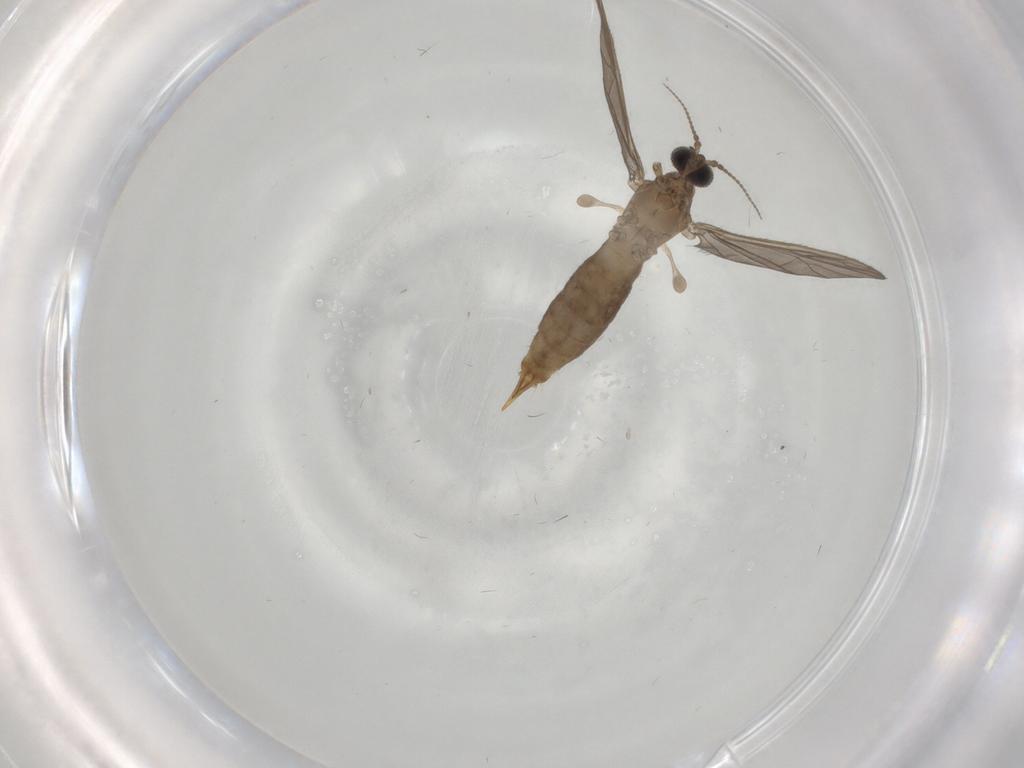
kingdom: Animalia
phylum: Arthropoda
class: Insecta
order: Diptera
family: Limoniidae
